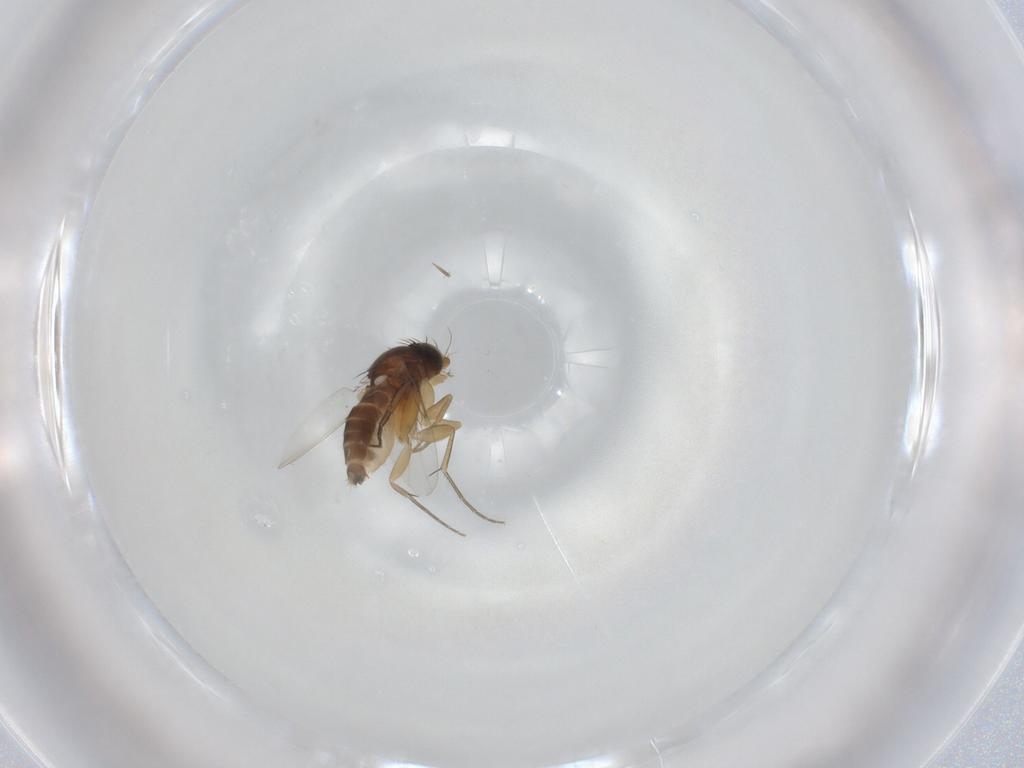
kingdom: Animalia
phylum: Arthropoda
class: Insecta
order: Diptera
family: Phoridae
